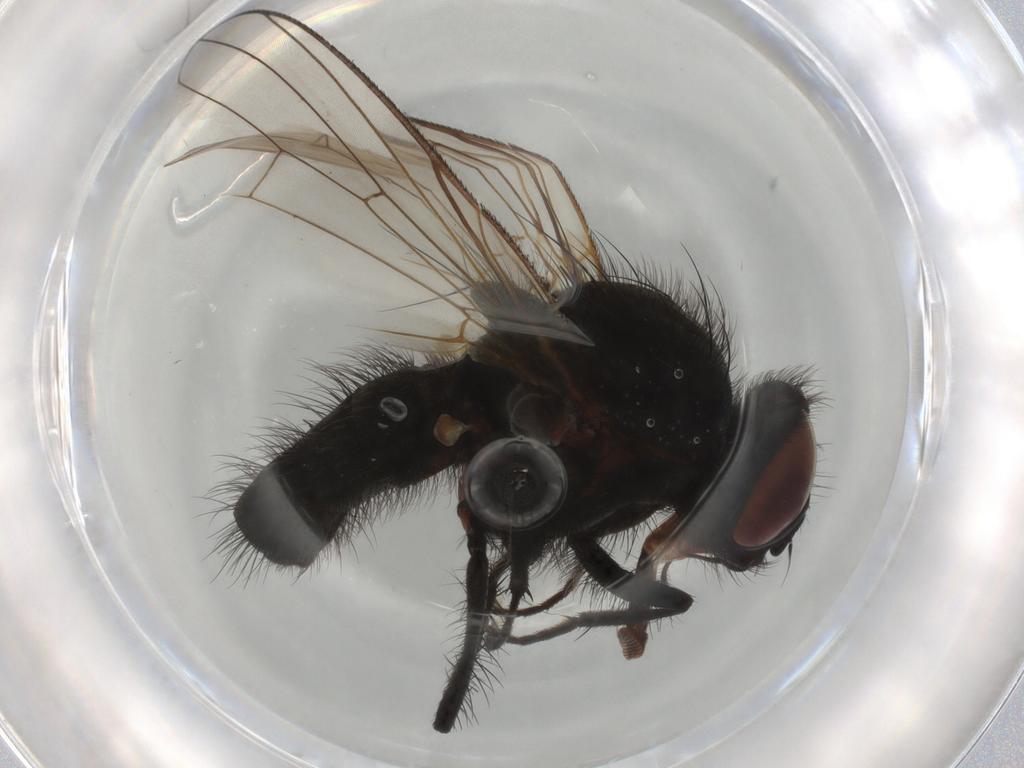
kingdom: Animalia
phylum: Arthropoda
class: Insecta
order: Diptera
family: Anthomyiidae
